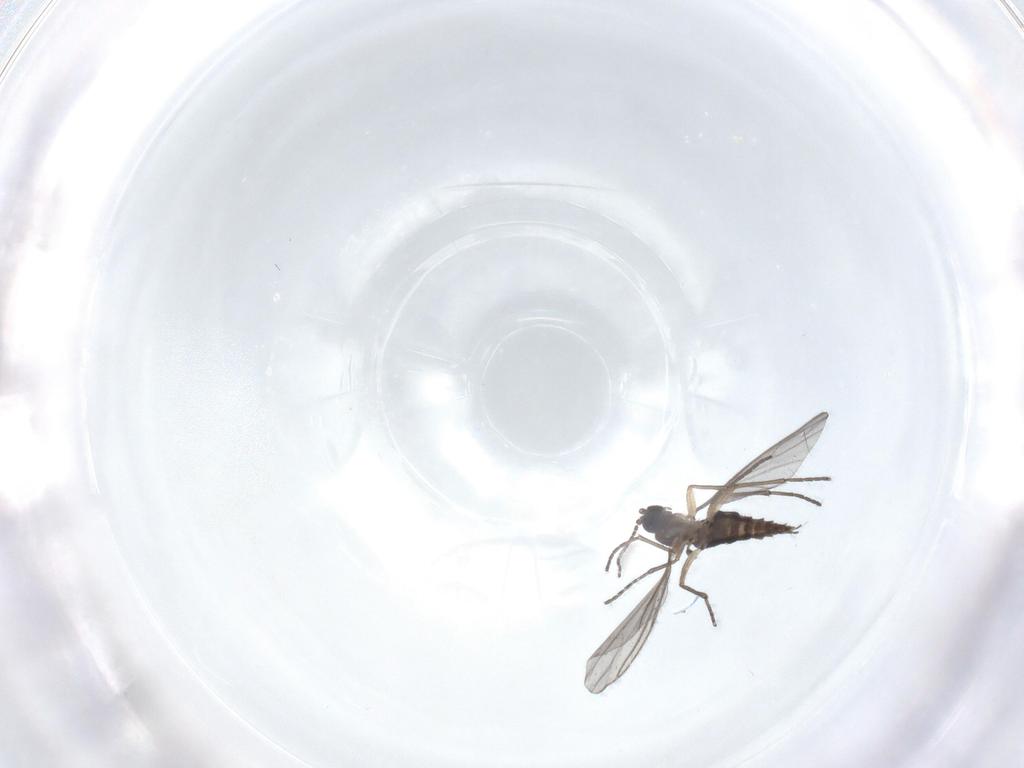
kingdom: Animalia
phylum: Arthropoda
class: Insecta
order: Diptera
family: Sciaridae
